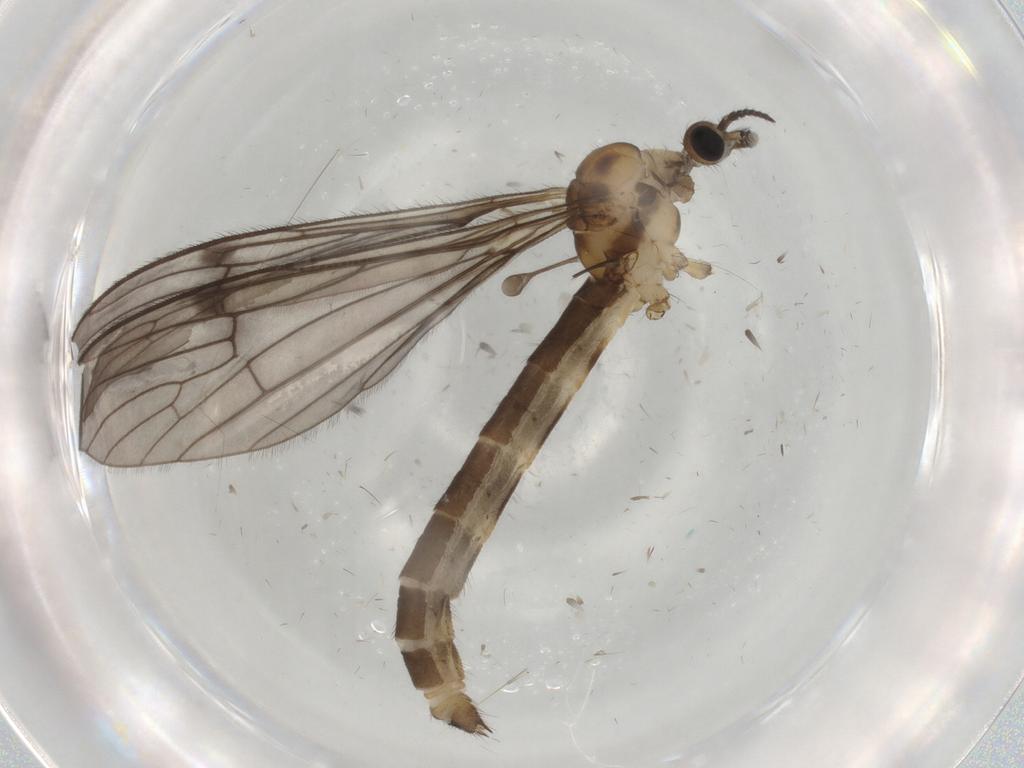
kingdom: Animalia
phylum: Arthropoda
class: Insecta
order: Diptera
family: Limoniidae
